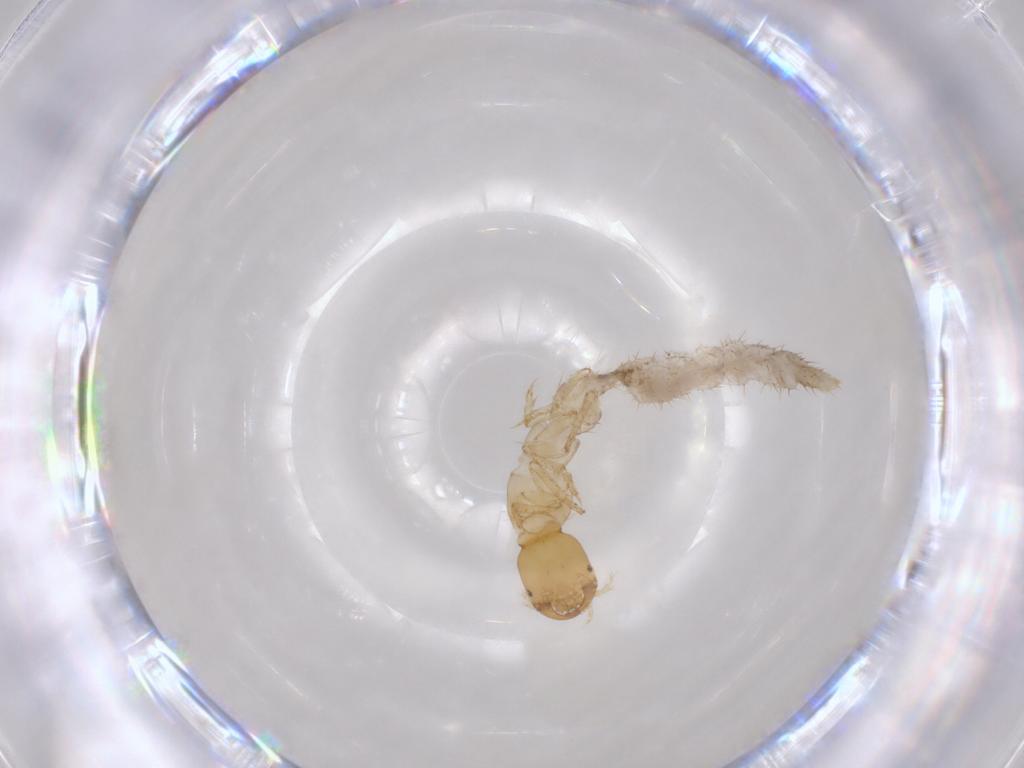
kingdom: Animalia
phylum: Arthropoda
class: Insecta
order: Coleoptera
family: Staphylinidae
